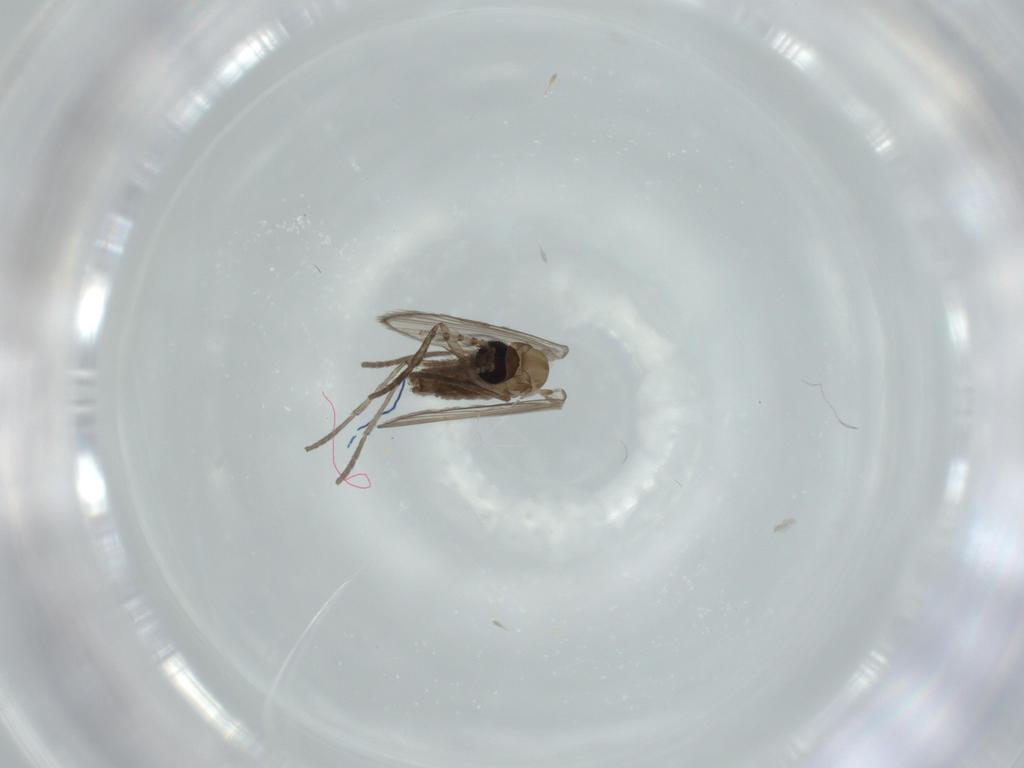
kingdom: Animalia
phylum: Arthropoda
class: Insecta
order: Diptera
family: Psychodidae
